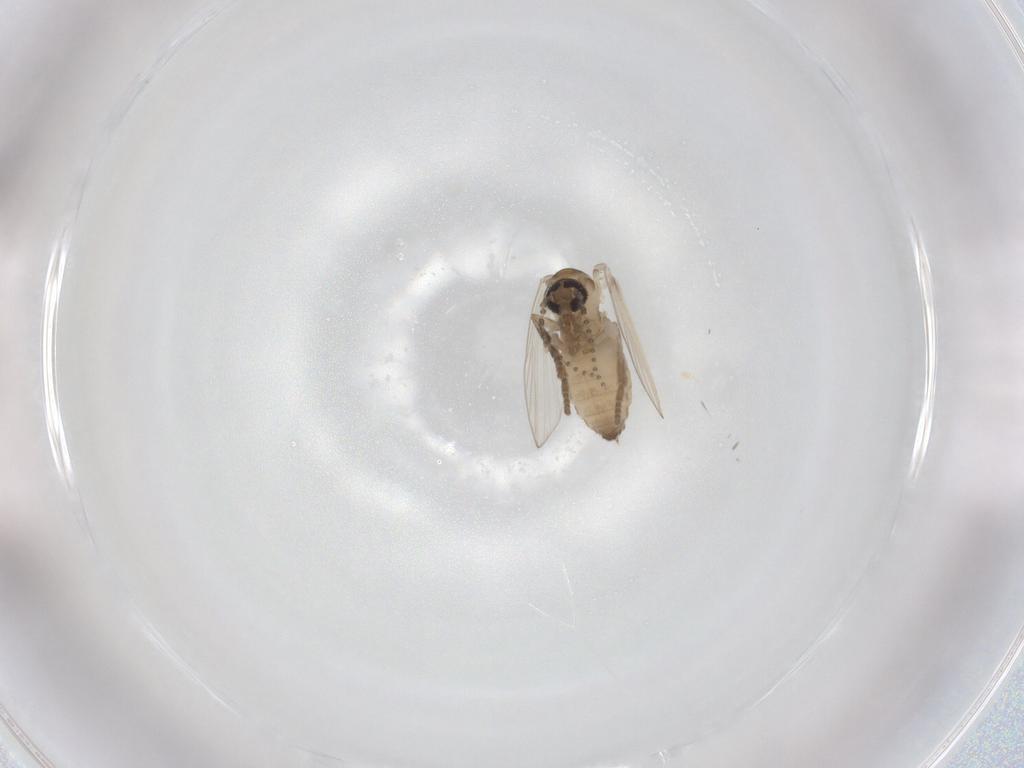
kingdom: Animalia
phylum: Arthropoda
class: Insecta
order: Diptera
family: Psychodidae
